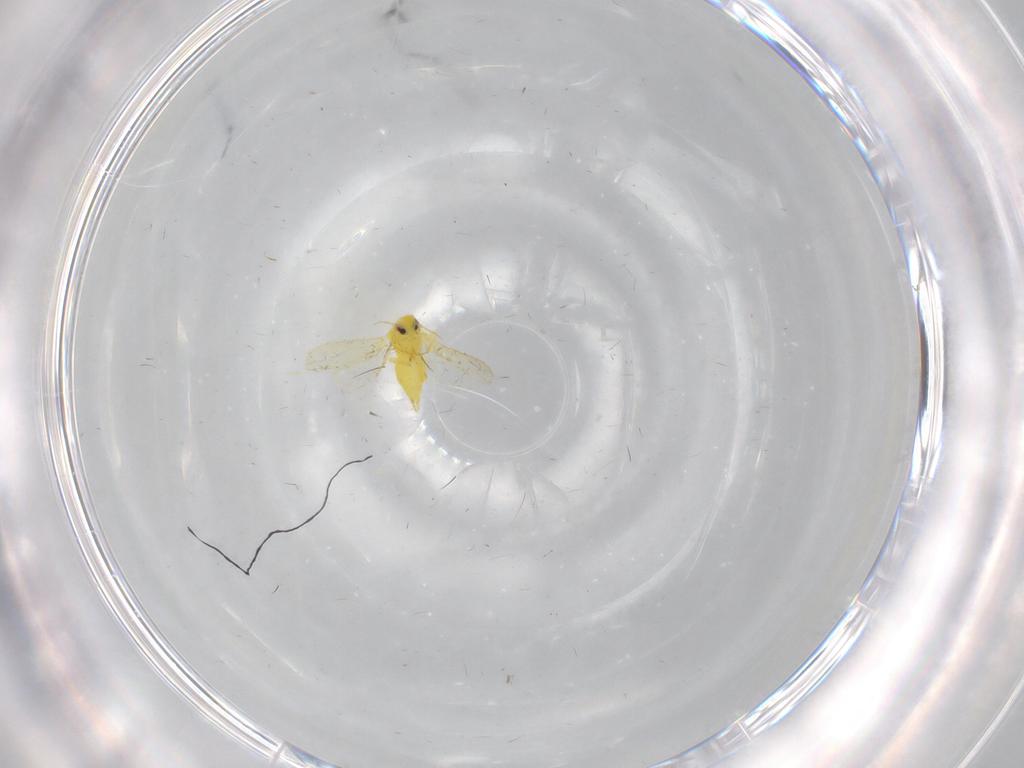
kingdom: Animalia
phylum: Arthropoda
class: Insecta
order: Hemiptera
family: Aleyrodidae
